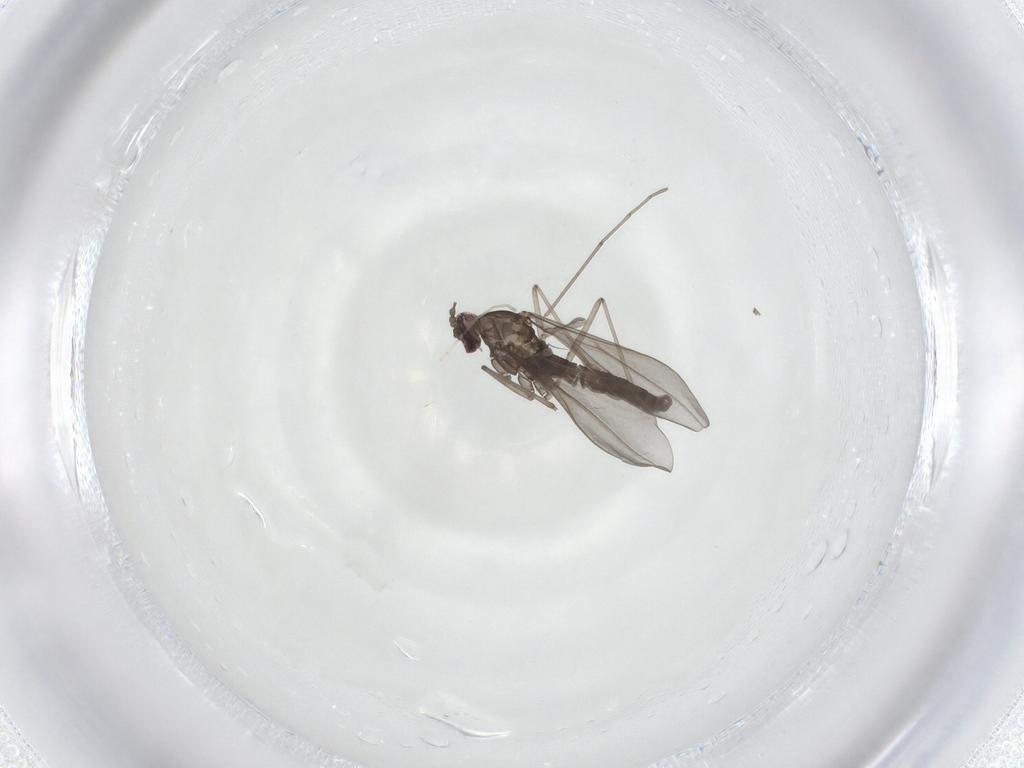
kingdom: Animalia
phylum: Arthropoda
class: Insecta
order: Diptera
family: Cecidomyiidae
